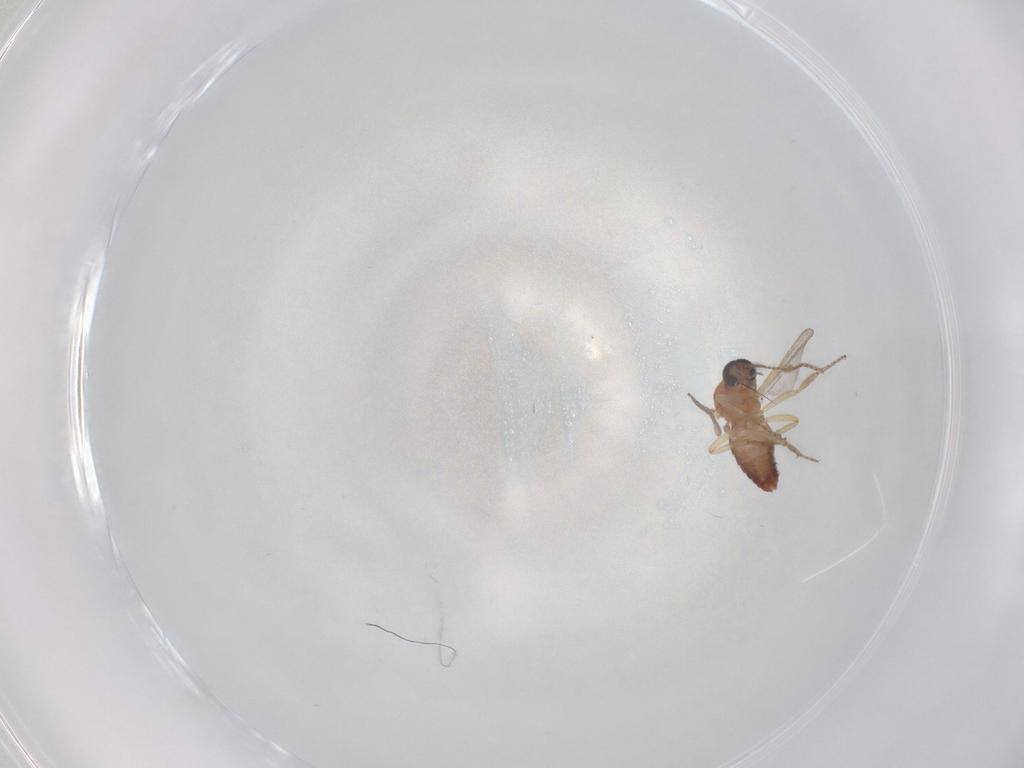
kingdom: Animalia
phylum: Arthropoda
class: Insecta
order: Diptera
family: Ceratopogonidae
